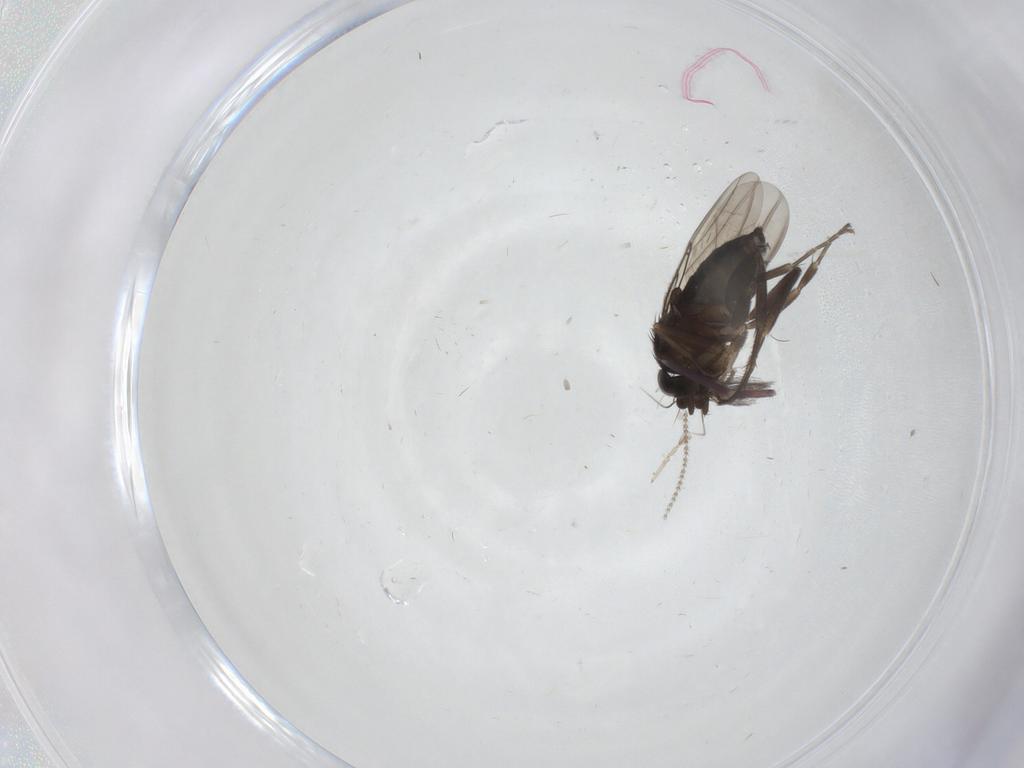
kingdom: Animalia
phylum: Arthropoda
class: Insecta
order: Diptera
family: Phoridae
